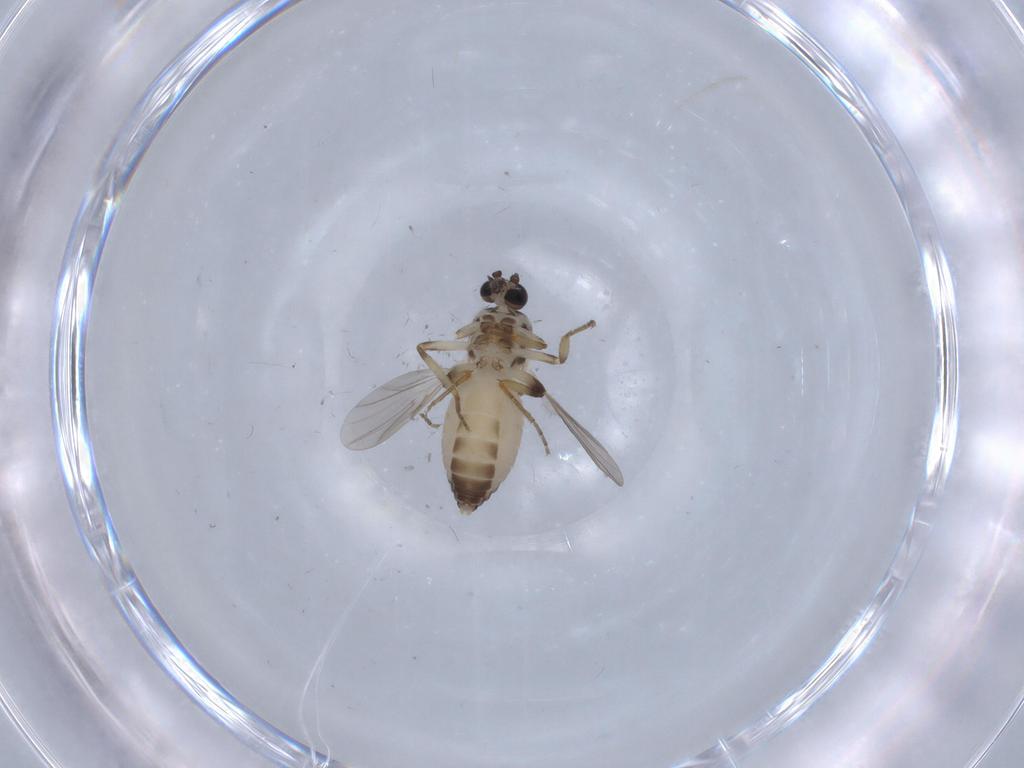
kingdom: Animalia
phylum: Arthropoda
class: Insecta
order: Diptera
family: Ceratopogonidae
